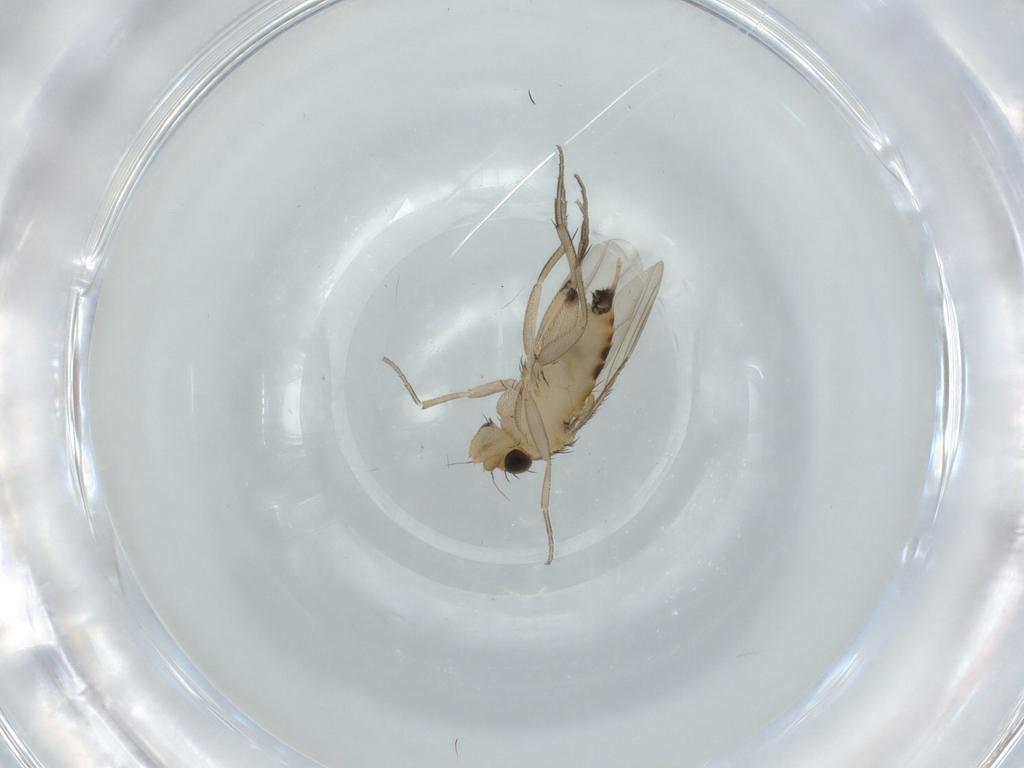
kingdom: Animalia
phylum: Arthropoda
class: Insecta
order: Diptera
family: Phoridae
